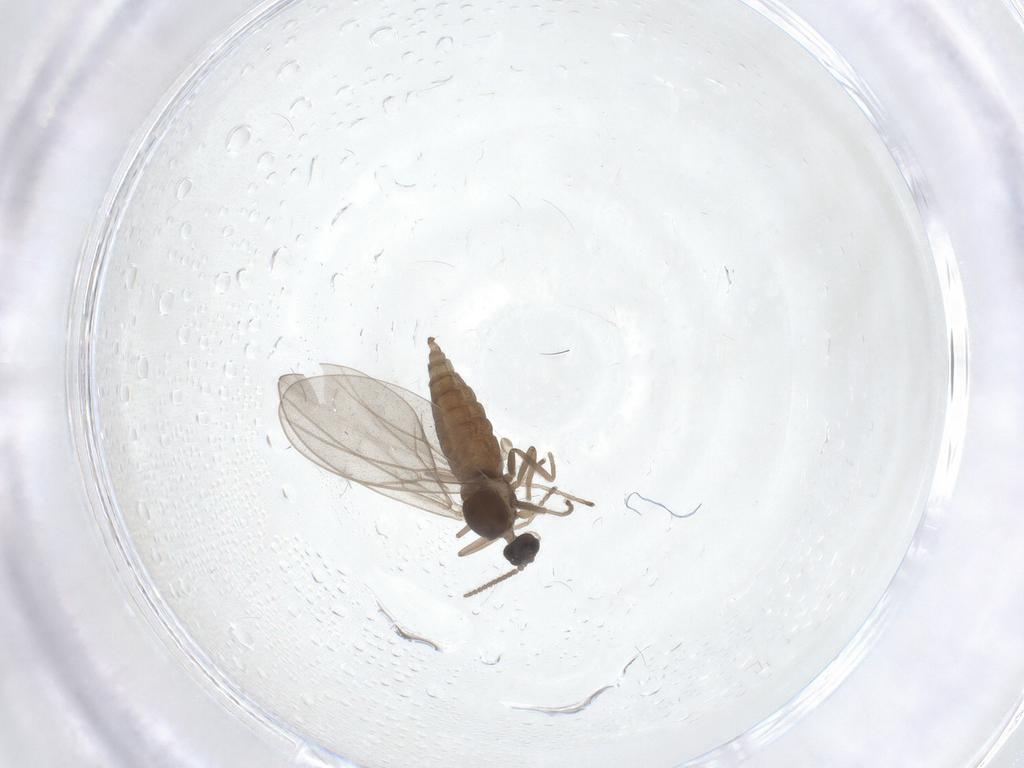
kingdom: Animalia
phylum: Arthropoda
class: Insecta
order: Diptera
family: Cecidomyiidae
